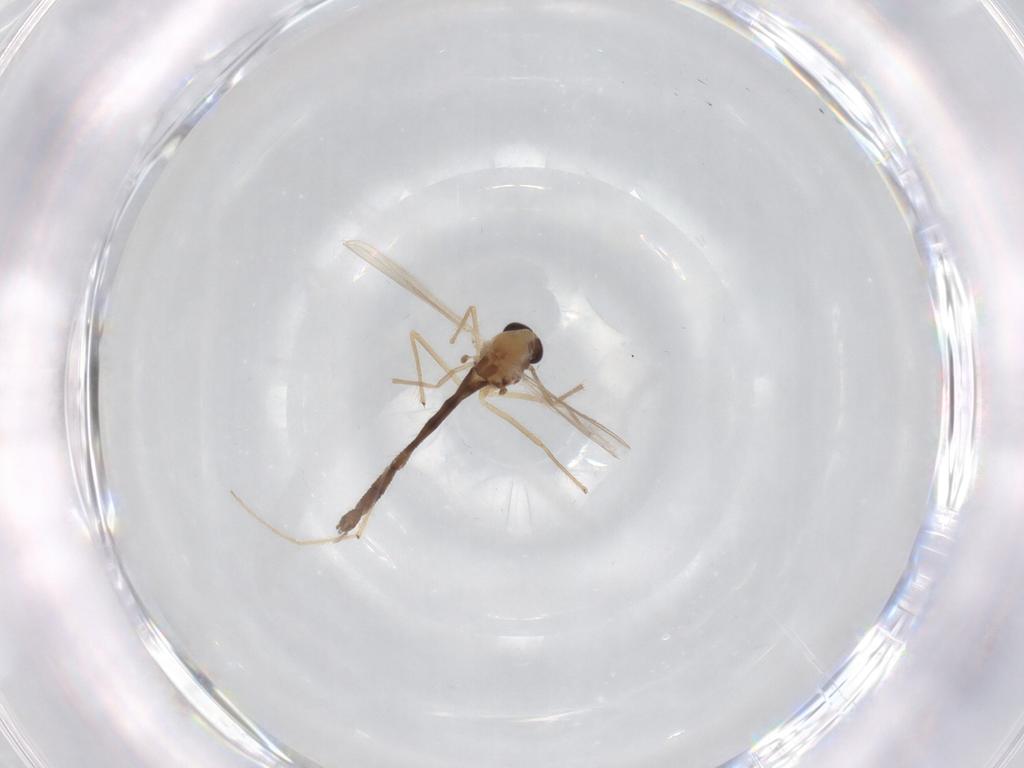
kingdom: Animalia
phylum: Arthropoda
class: Insecta
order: Diptera
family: Chironomidae
